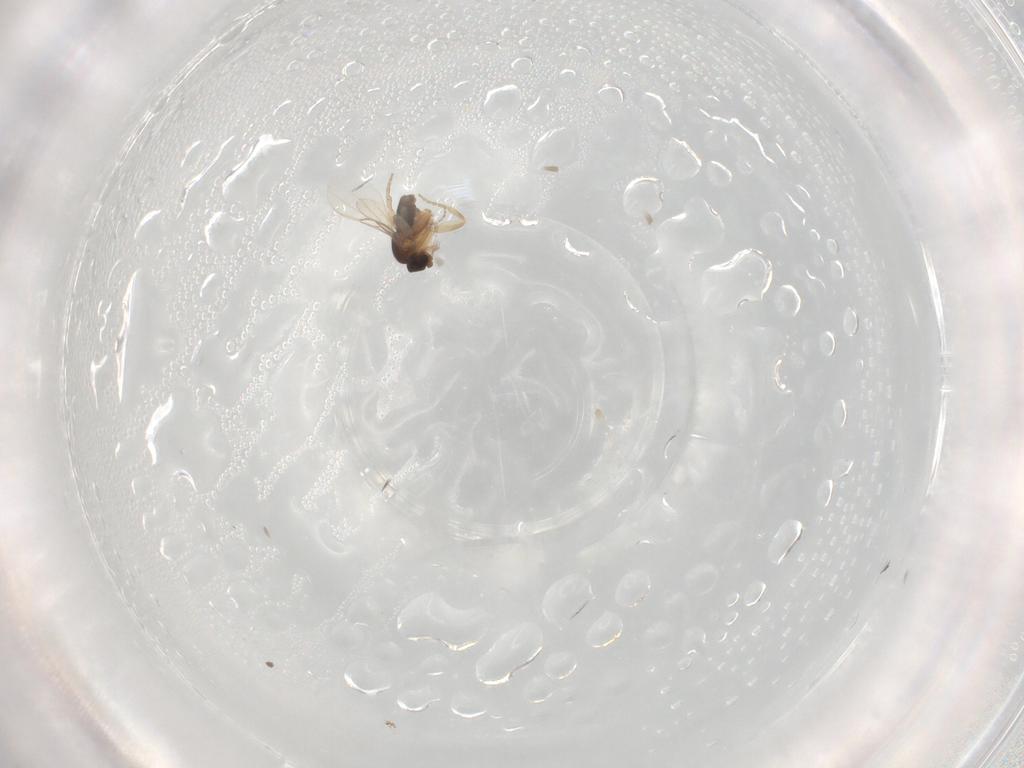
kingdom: Animalia
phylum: Arthropoda
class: Insecta
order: Diptera
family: Phoridae
